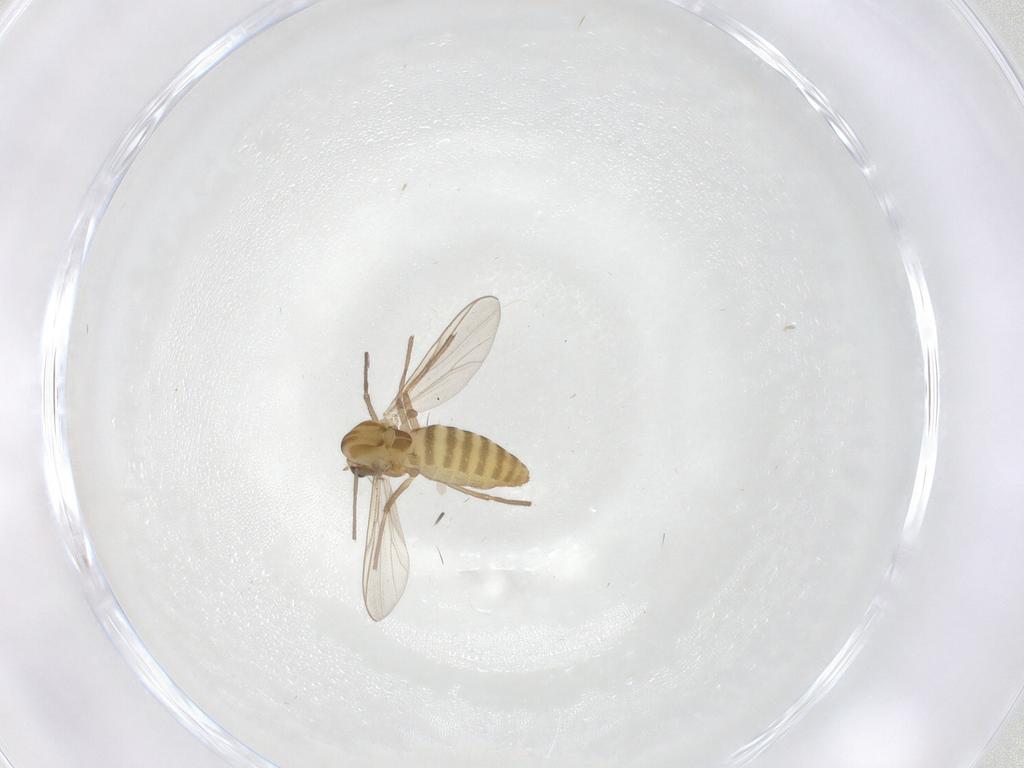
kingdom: Animalia
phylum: Arthropoda
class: Insecta
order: Diptera
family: Chironomidae
